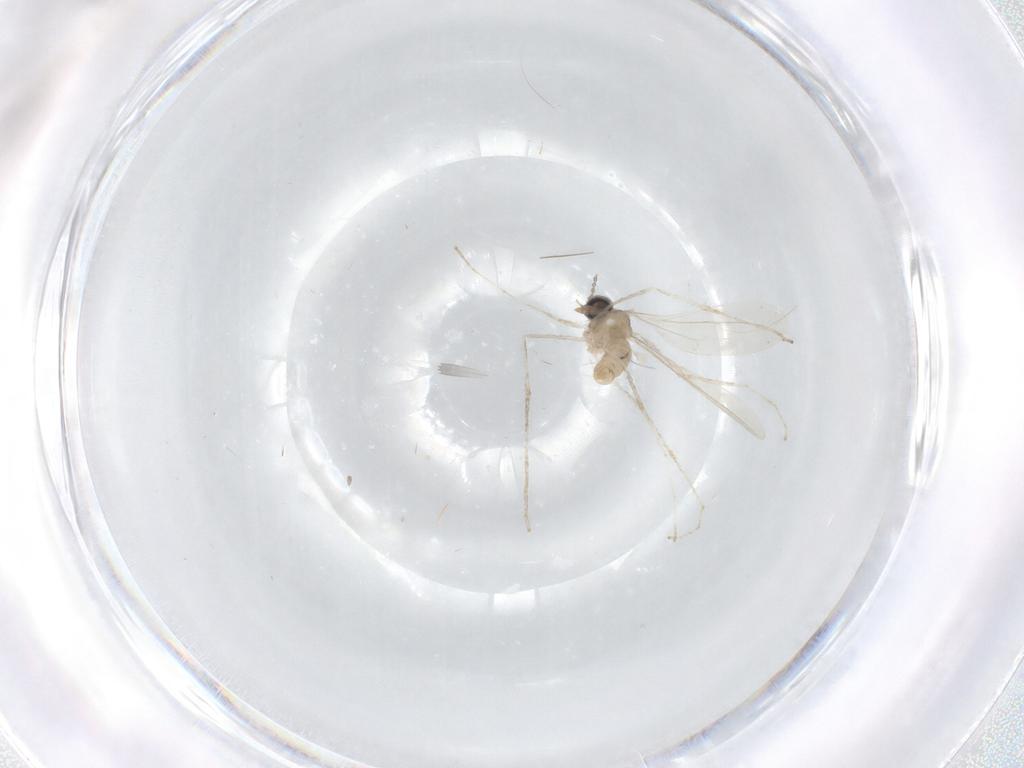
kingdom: Animalia
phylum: Arthropoda
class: Insecta
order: Diptera
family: Cecidomyiidae
